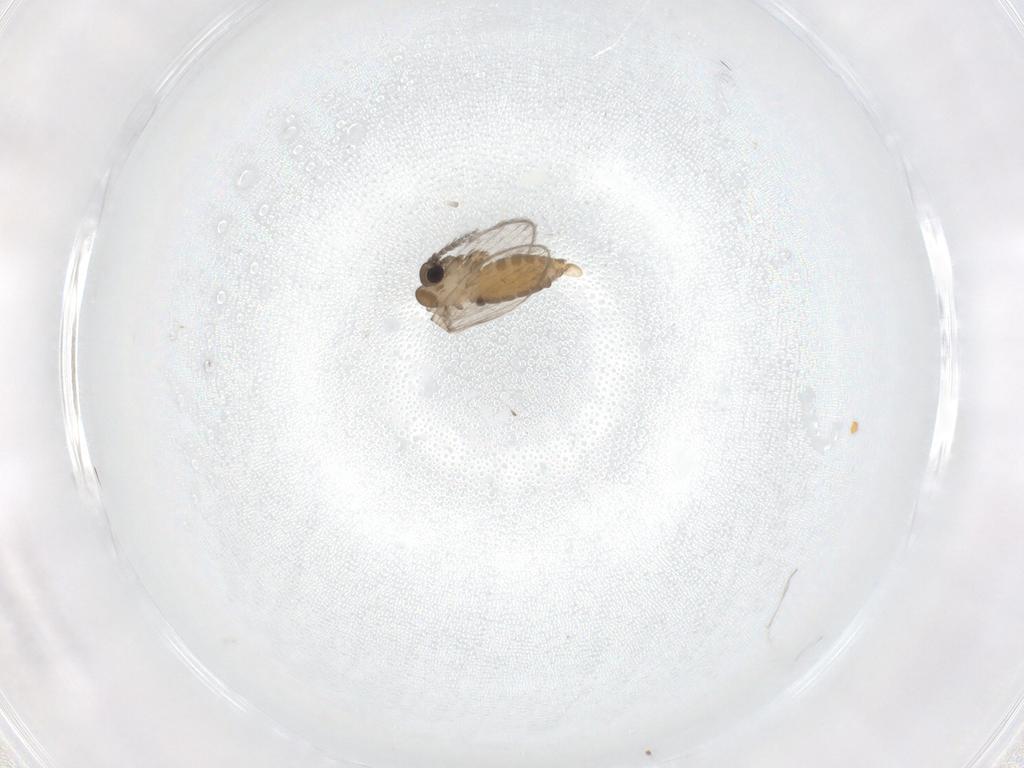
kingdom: Animalia
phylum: Arthropoda
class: Insecta
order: Diptera
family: Psychodidae
